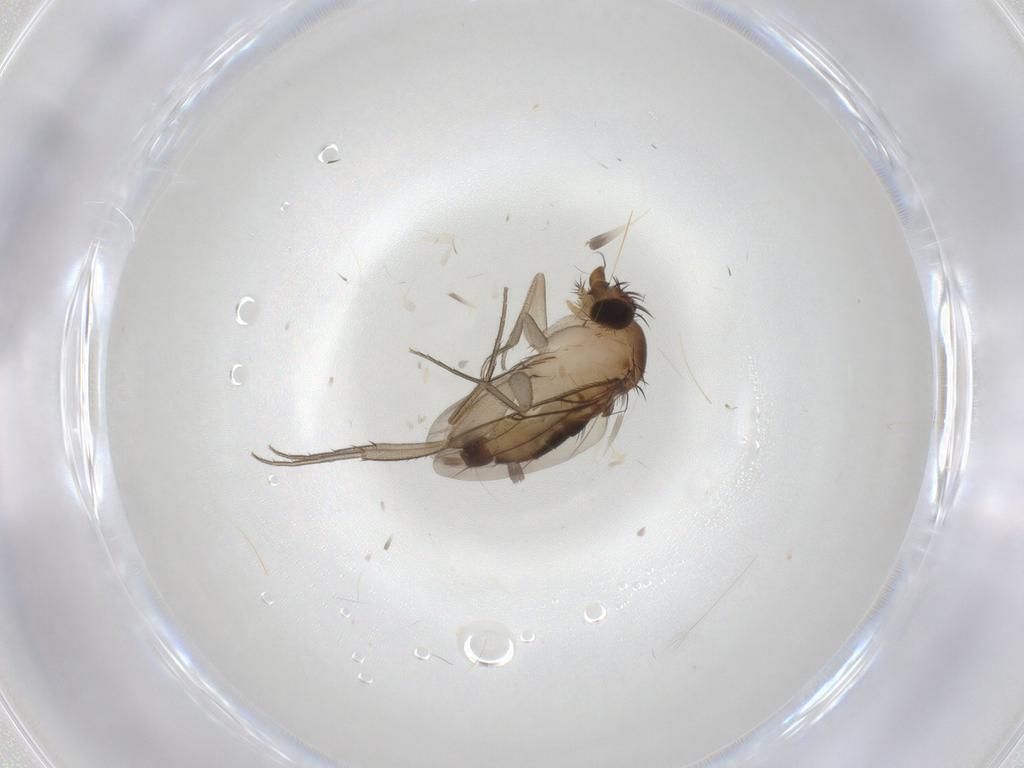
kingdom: Animalia
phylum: Arthropoda
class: Insecta
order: Diptera
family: Phoridae
